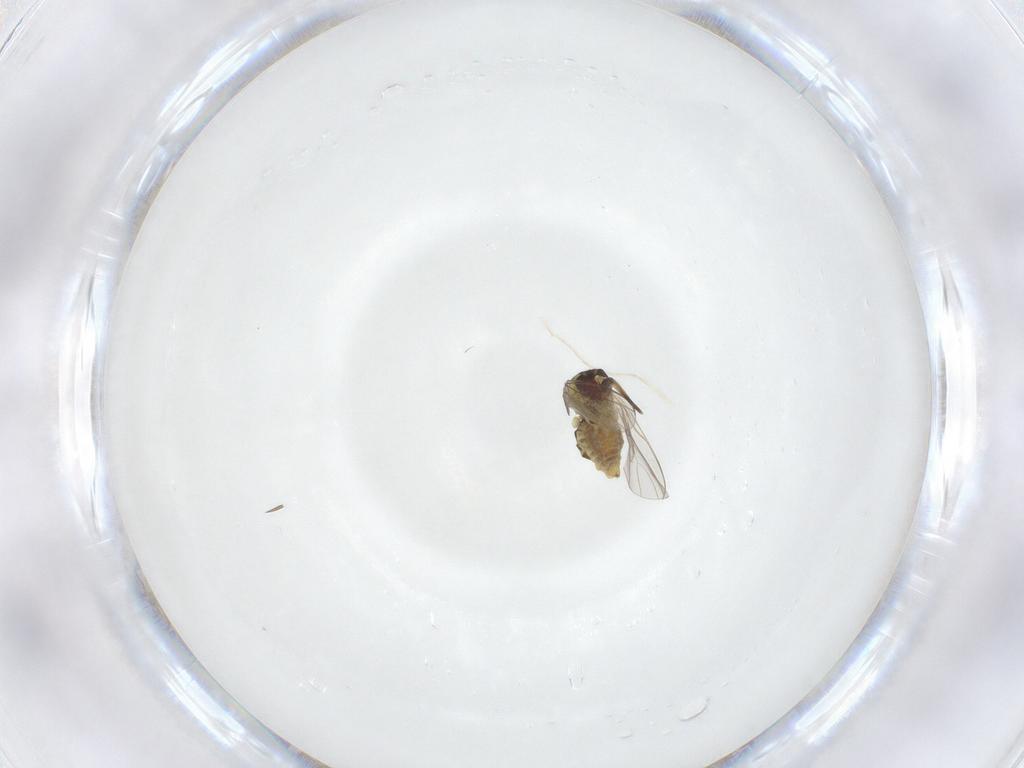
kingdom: Animalia
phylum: Arthropoda
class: Insecta
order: Diptera
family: Mythicomyiidae
